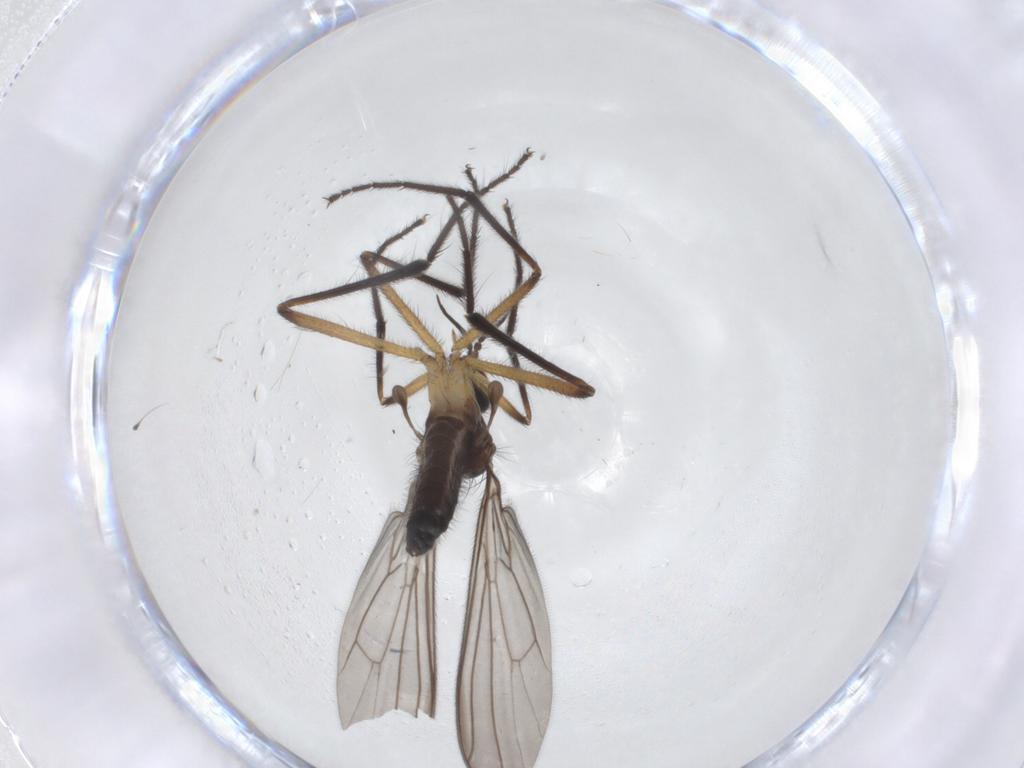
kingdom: Animalia
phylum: Arthropoda
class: Insecta
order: Diptera
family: Empididae
